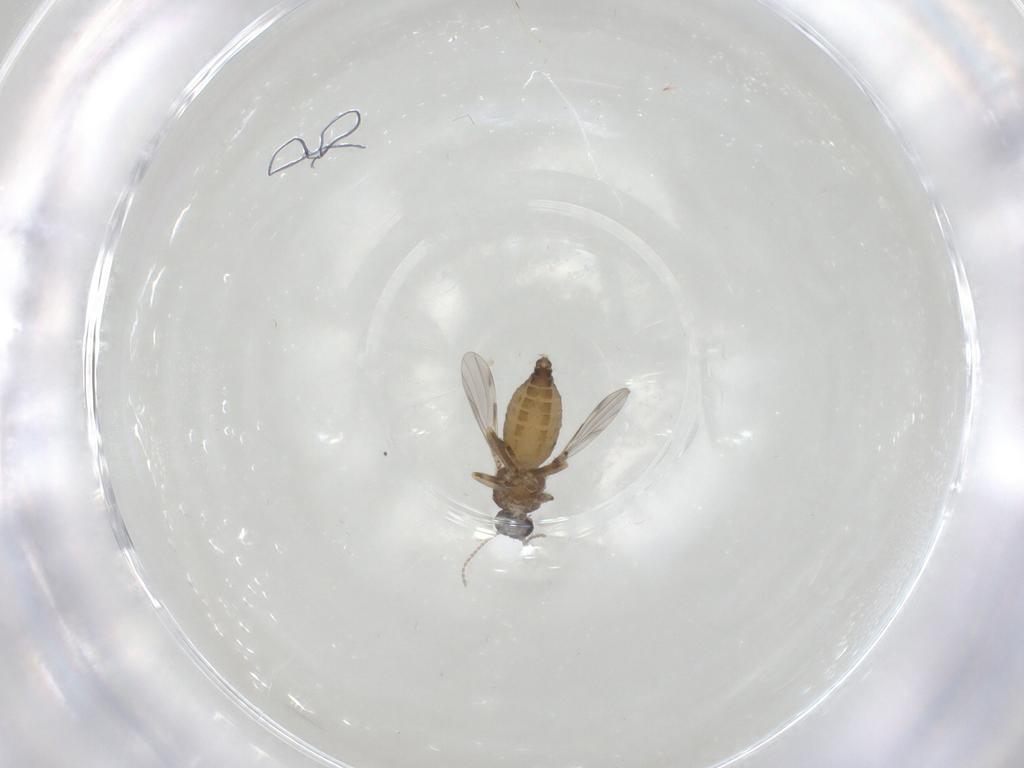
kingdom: Animalia
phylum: Arthropoda
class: Insecta
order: Diptera
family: Ceratopogonidae
